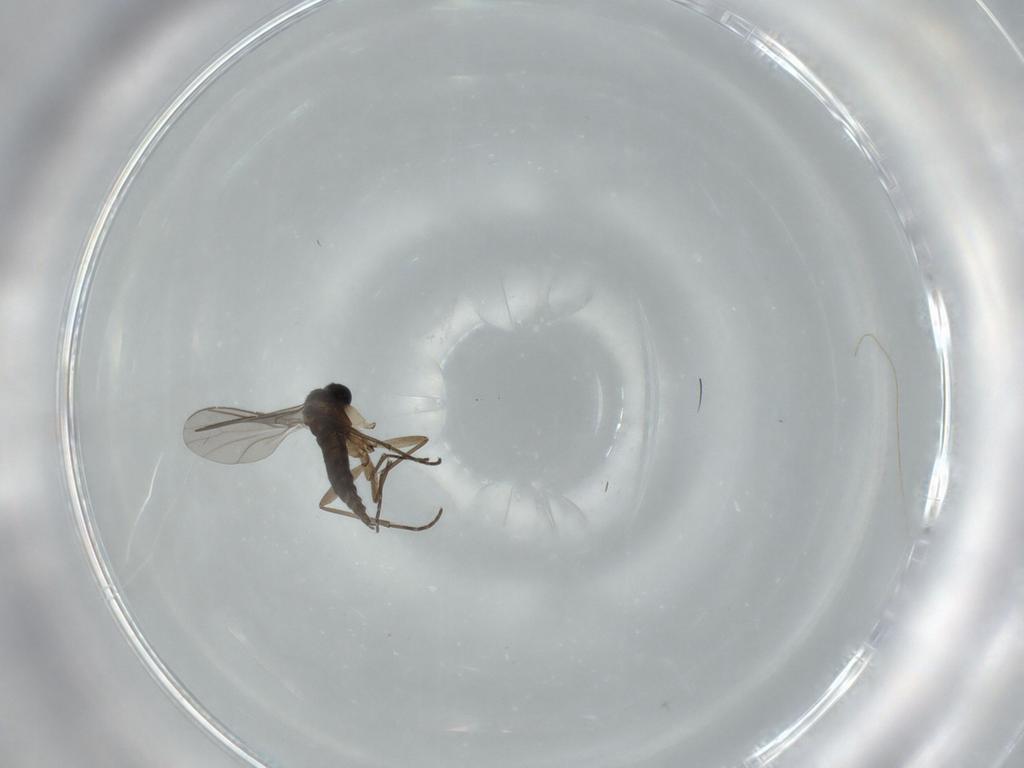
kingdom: Animalia
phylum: Arthropoda
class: Insecta
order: Diptera
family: Sciaridae
